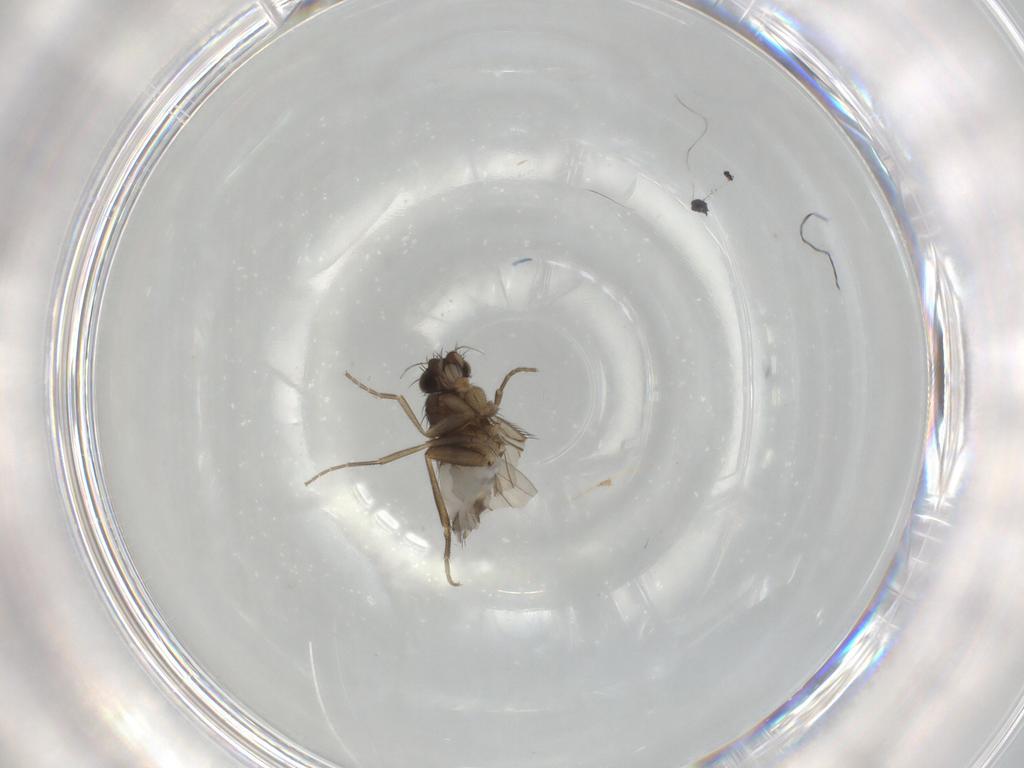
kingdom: Animalia
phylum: Arthropoda
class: Insecta
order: Diptera
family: Phoridae
